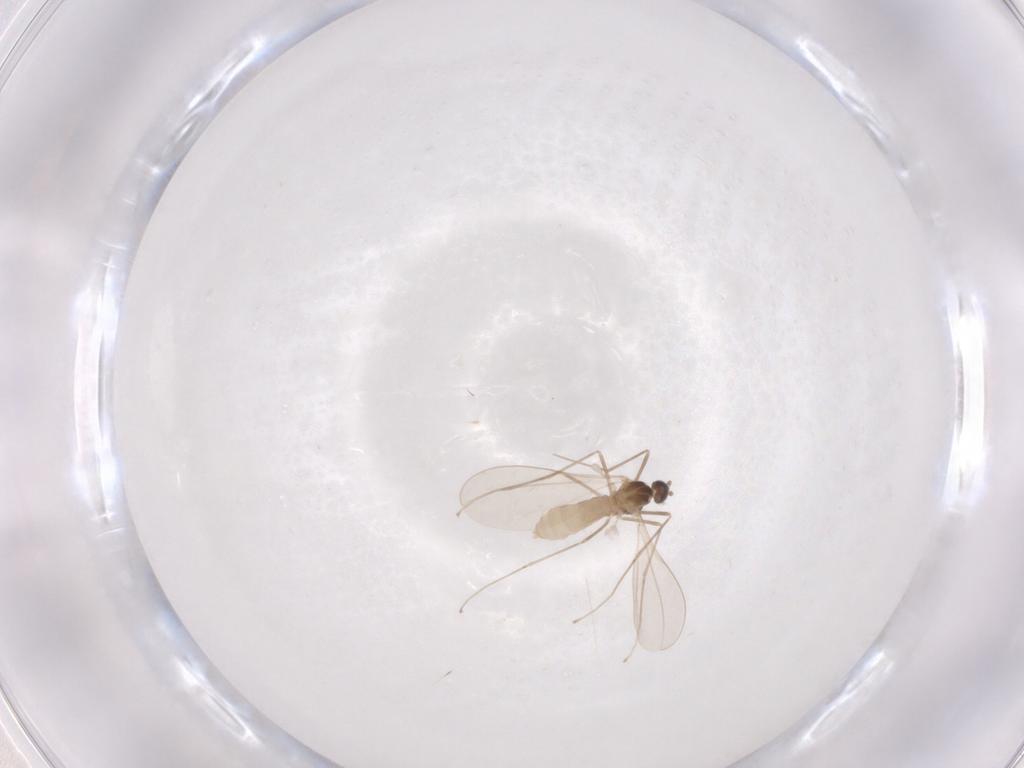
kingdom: Animalia
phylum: Arthropoda
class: Insecta
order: Diptera
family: Cecidomyiidae
